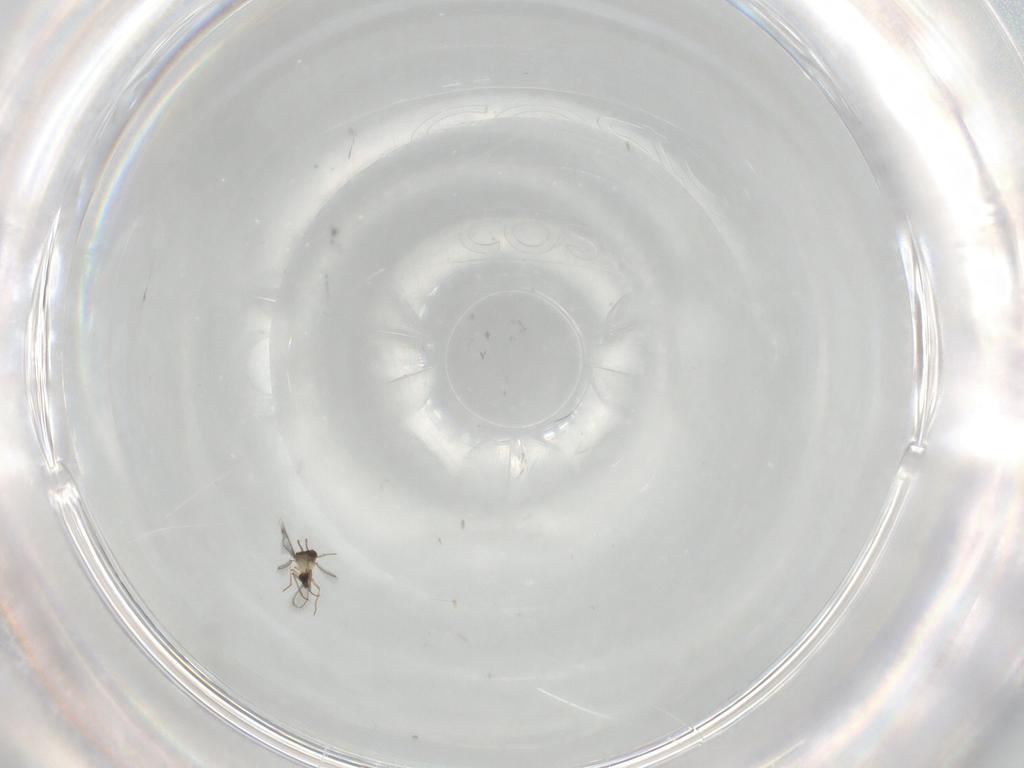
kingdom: Animalia
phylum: Arthropoda
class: Insecta
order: Hymenoptera
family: Mymaridae
